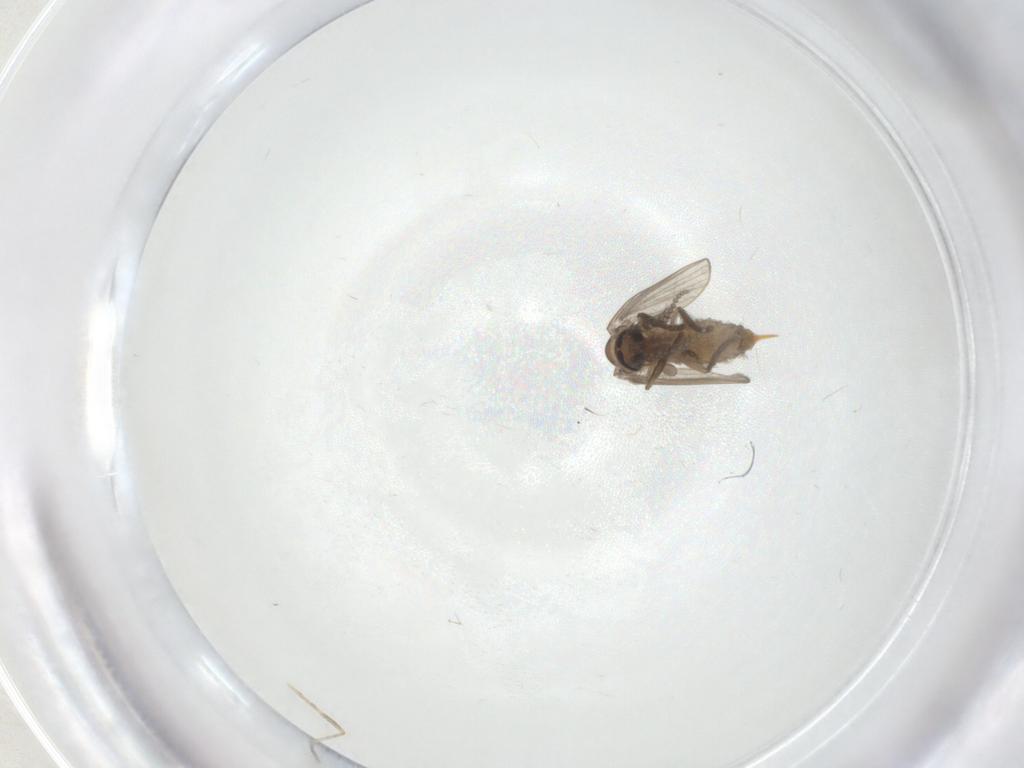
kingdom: Animalia
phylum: Arthropoda
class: Insecta
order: Diptera
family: Psychodidae
